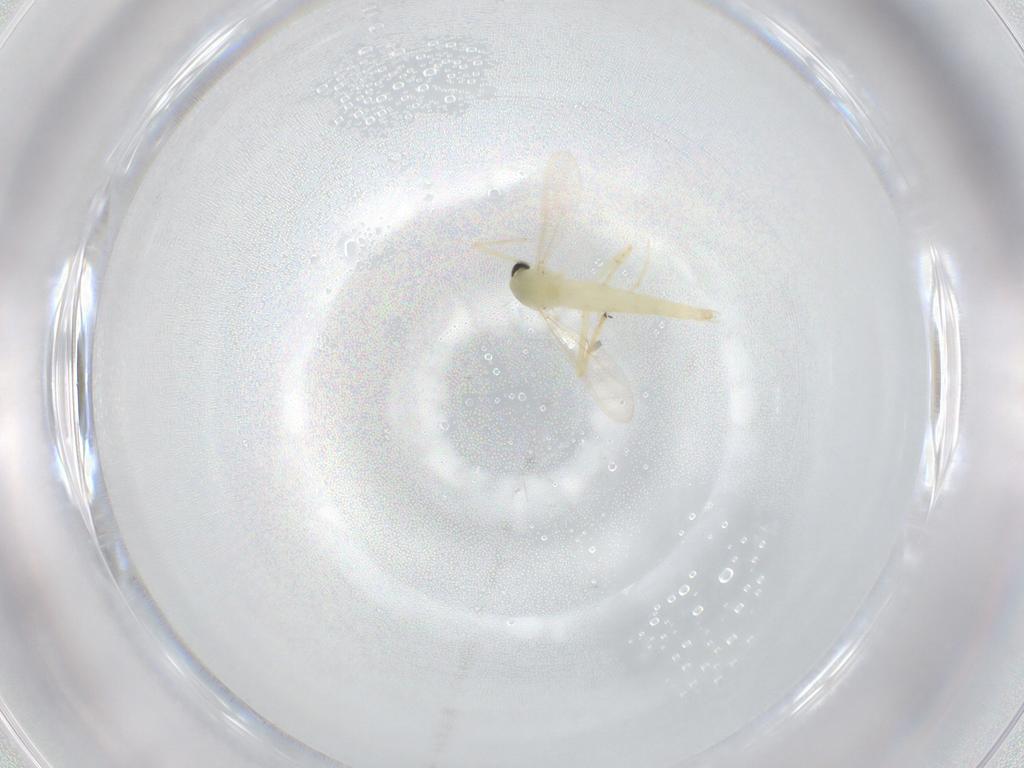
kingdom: Animalia
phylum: Arthropoda
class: Insecta
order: Diptera
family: Chironomidae
